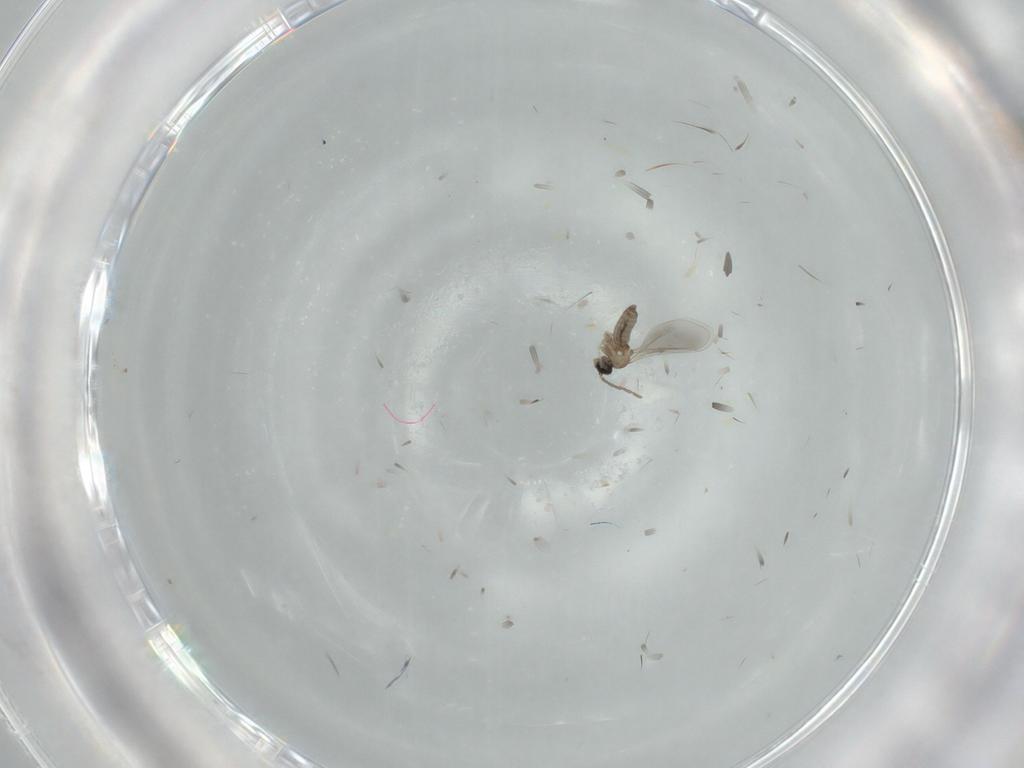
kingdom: Animalia
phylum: Arthropoda
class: Insecta
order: Diptera
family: Cecidomyiidae
